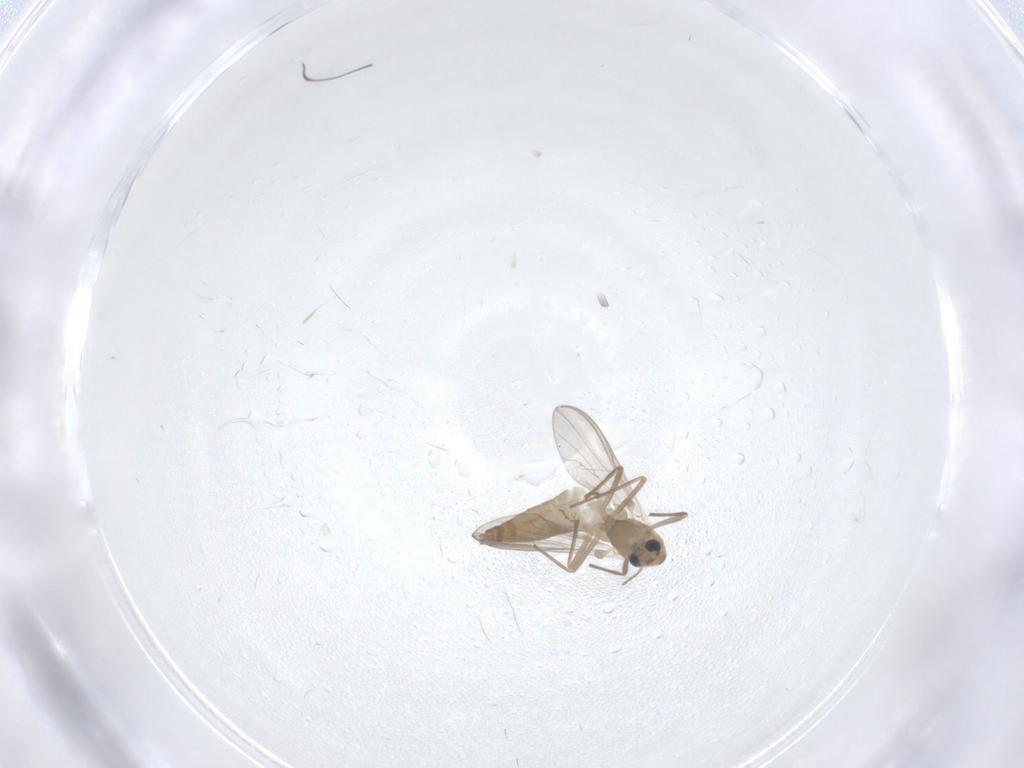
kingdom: Animalia
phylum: Arthropoda
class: Insecta
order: Diptera
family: Chironomidae
